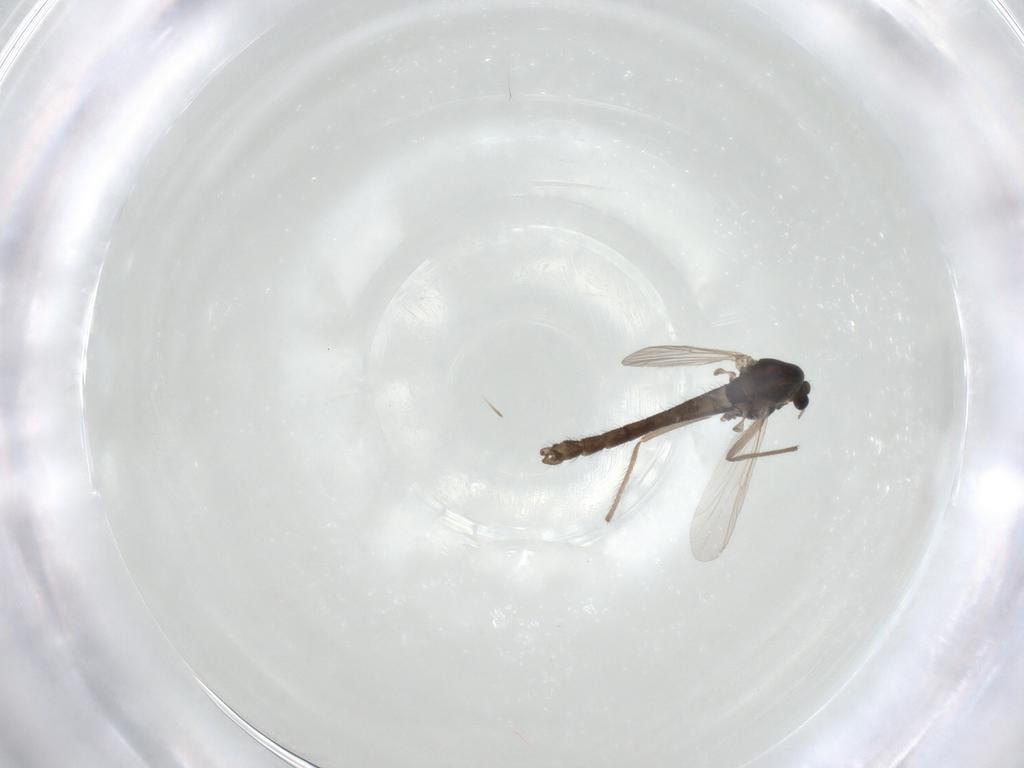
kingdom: Animalia
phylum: Arthropoda
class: Insecta
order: Diptera
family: Chironomidae
